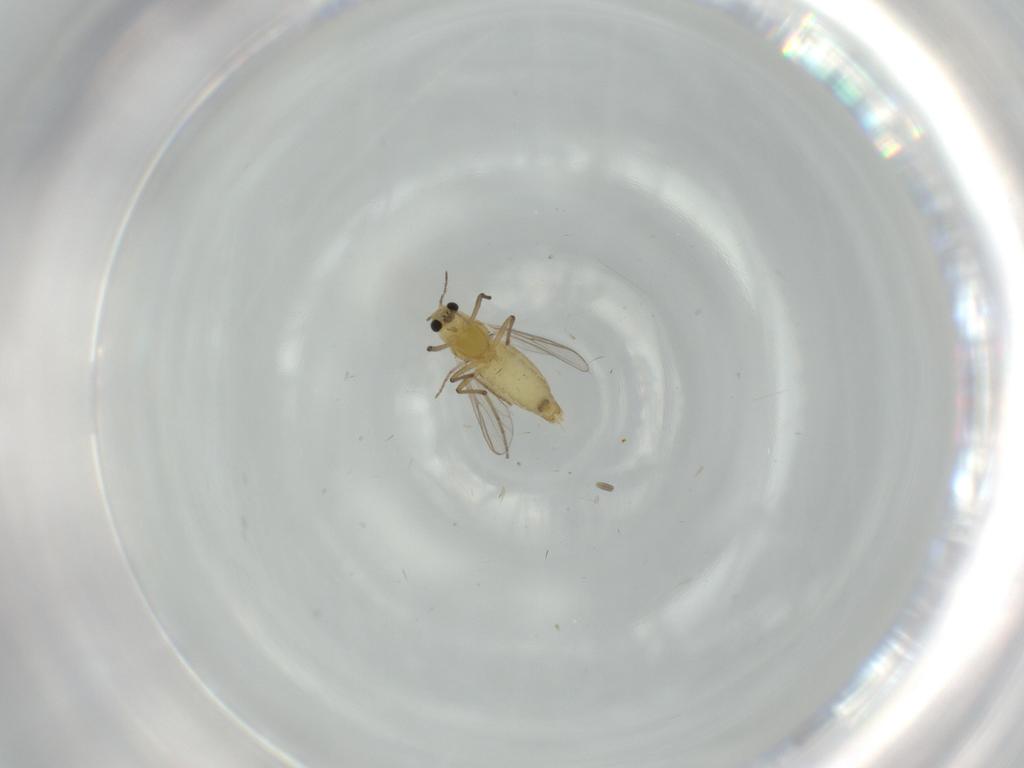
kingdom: Animalia
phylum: Arthropoda
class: Insecta
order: Diptera
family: Chironomidae
